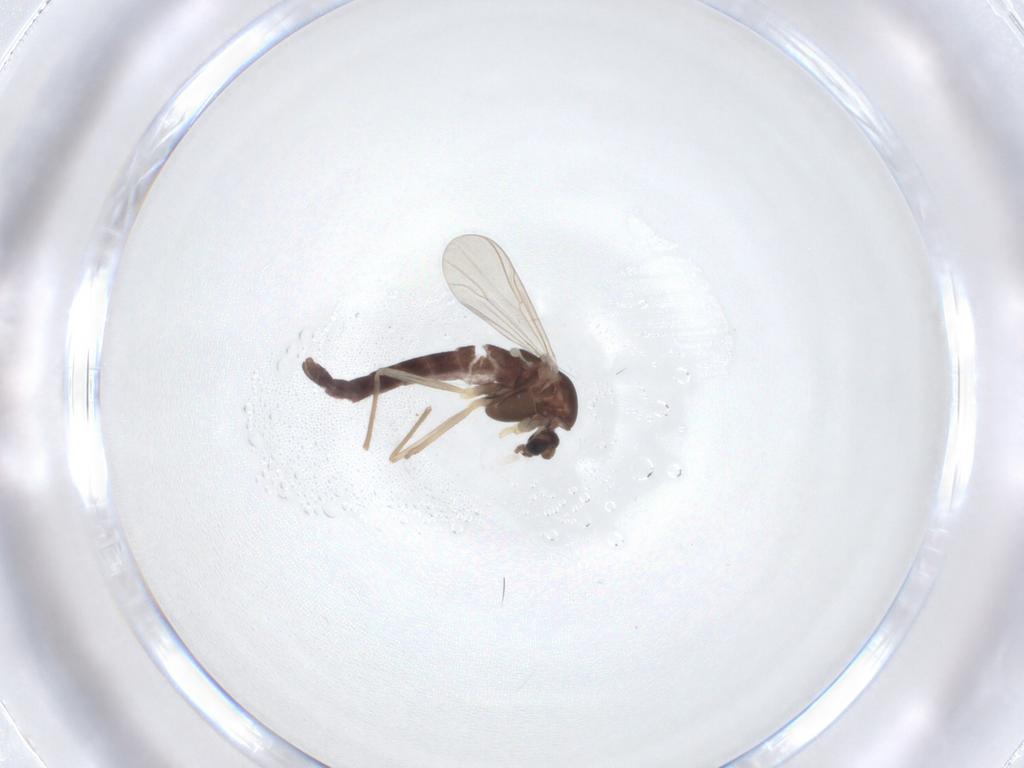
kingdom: Animalia
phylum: Arthropoda
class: Insecta
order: Diptera
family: Chironomidae
